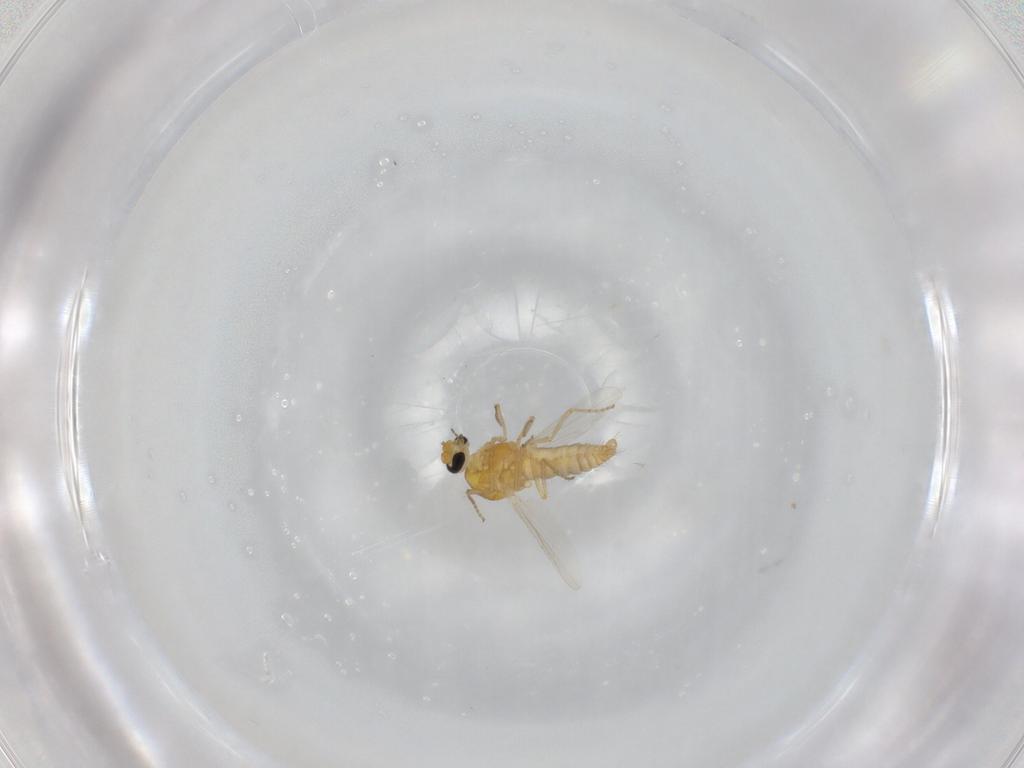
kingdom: Animalia
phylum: Arthropoda
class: Insecta
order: Diptera
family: Ceratopogonidae
